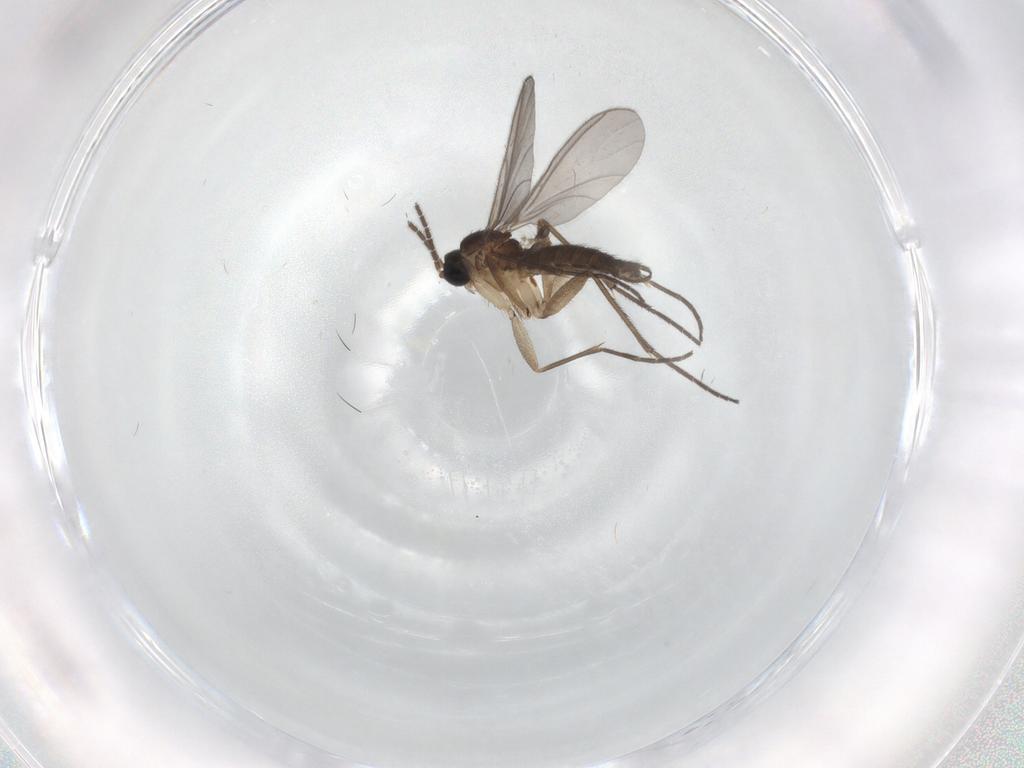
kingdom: Animalia
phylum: Arthropoda
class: Insecta
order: Diptera
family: Sciaridae
